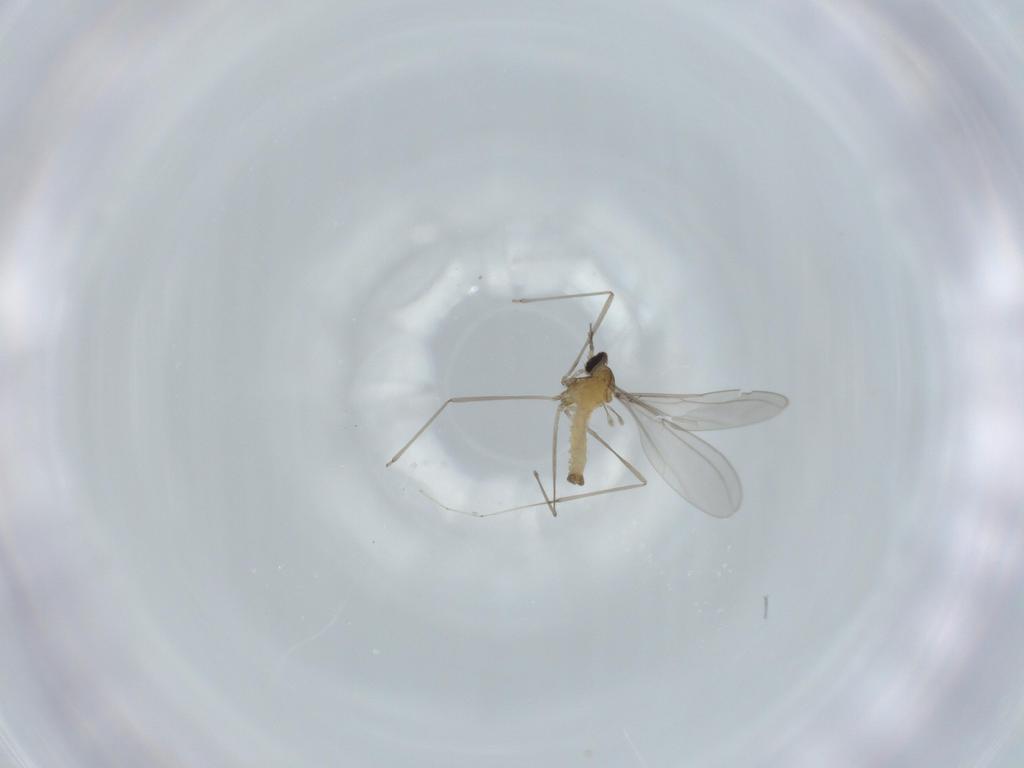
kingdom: Animalia
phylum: Arthropoda
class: Insecta
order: Diptera
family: Cecidomyiidae
